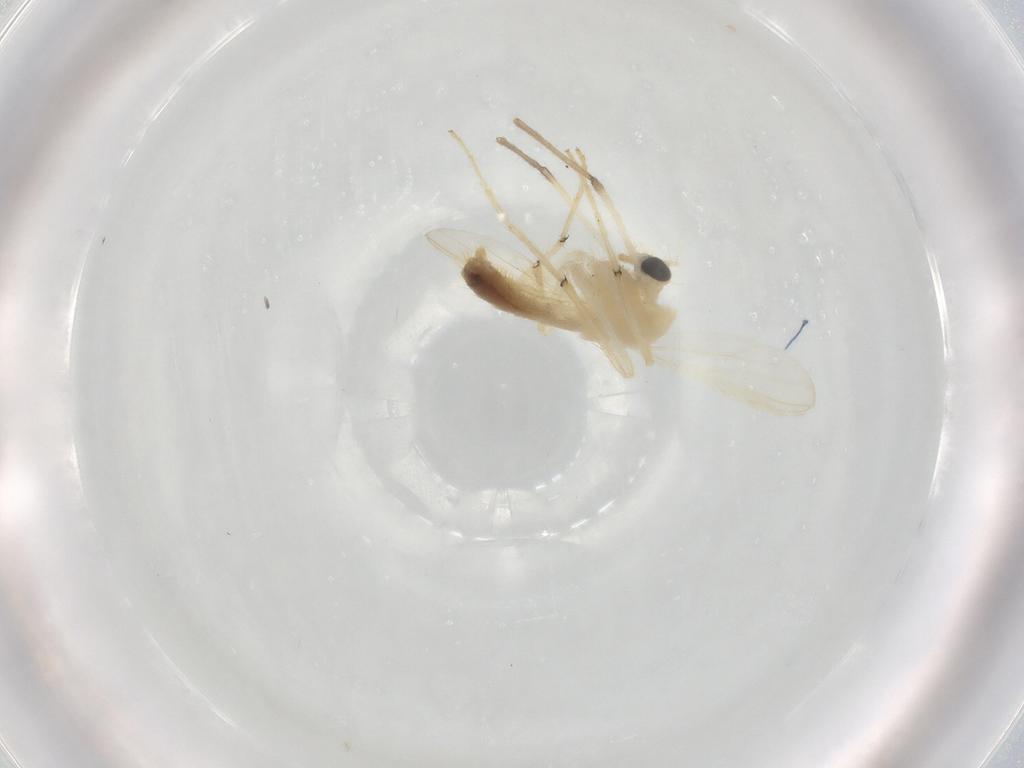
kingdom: Animalia
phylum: Arthropoda
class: Insecta
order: Diptera
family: Chironomidae
